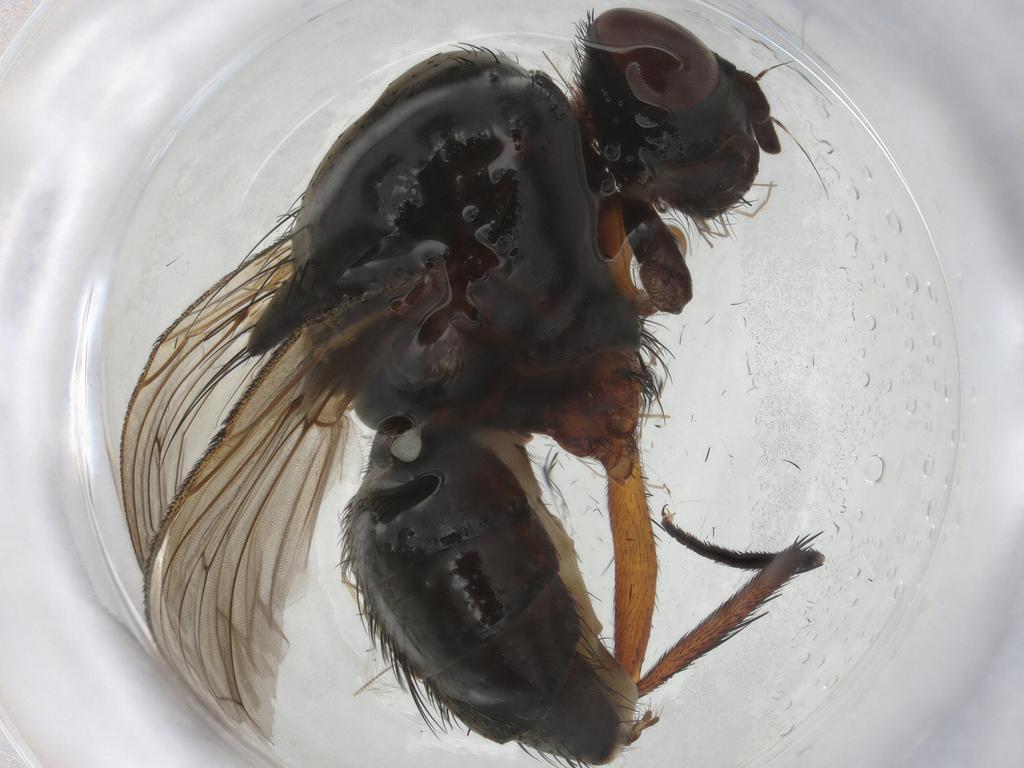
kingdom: Animalia
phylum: Arthropoda
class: Insecta
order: Diptera
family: Anthomyiidae
